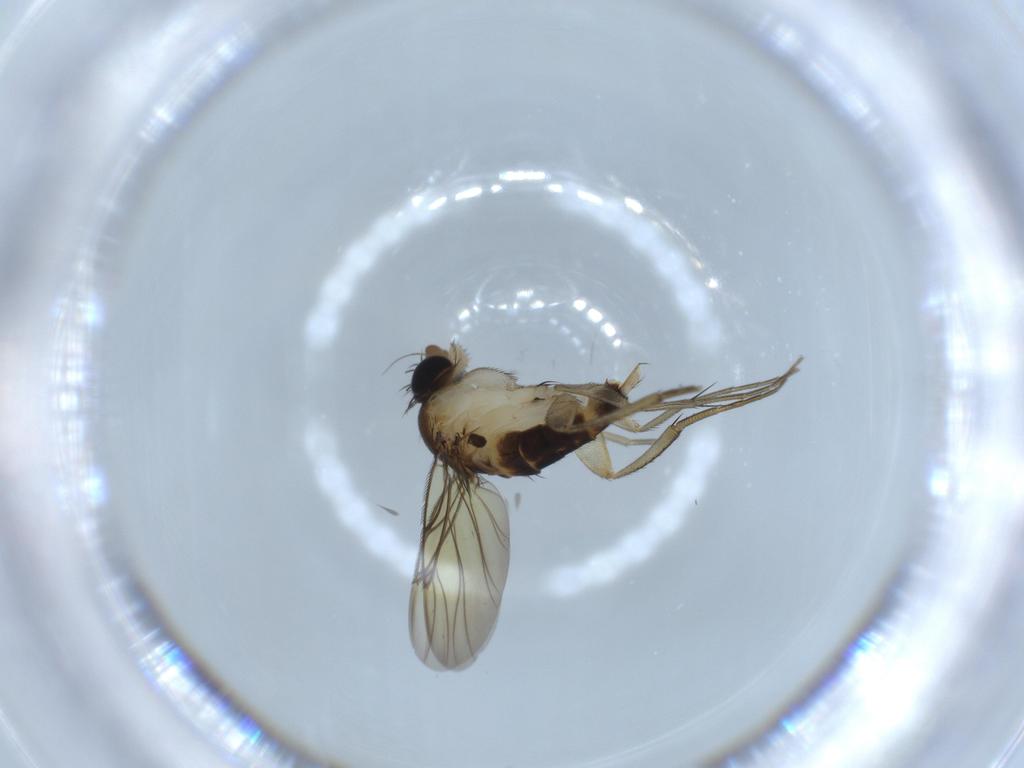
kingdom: Animalia
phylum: Arthropoda
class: Insecta
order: Diptera
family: Phoridae
